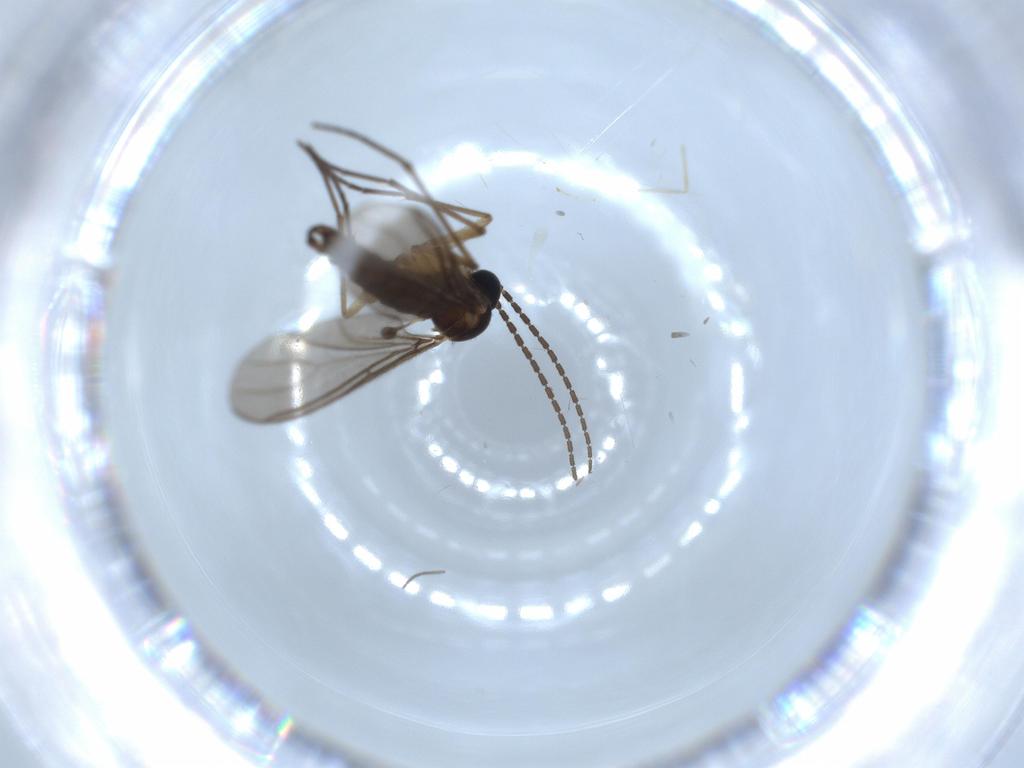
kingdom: Animalia
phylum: Arthropoda
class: Insecta
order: Diptera
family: Sciaridae
